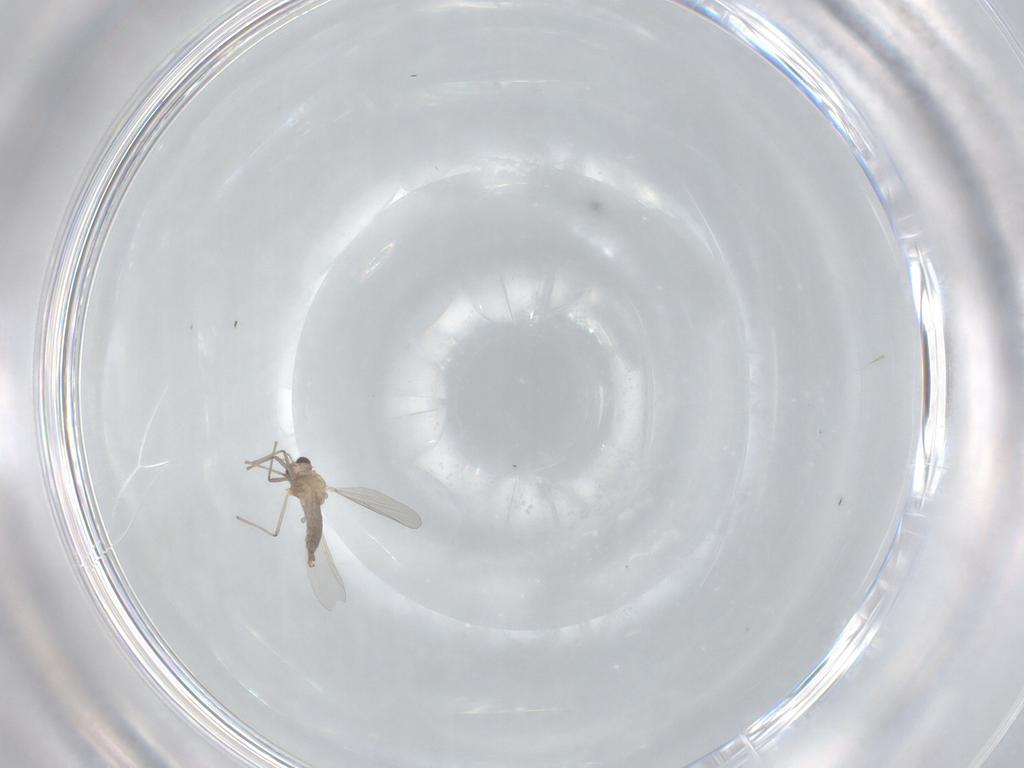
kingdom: Animalia
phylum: Arthropoda
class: Insecta
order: Diptera
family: Chironomidae
